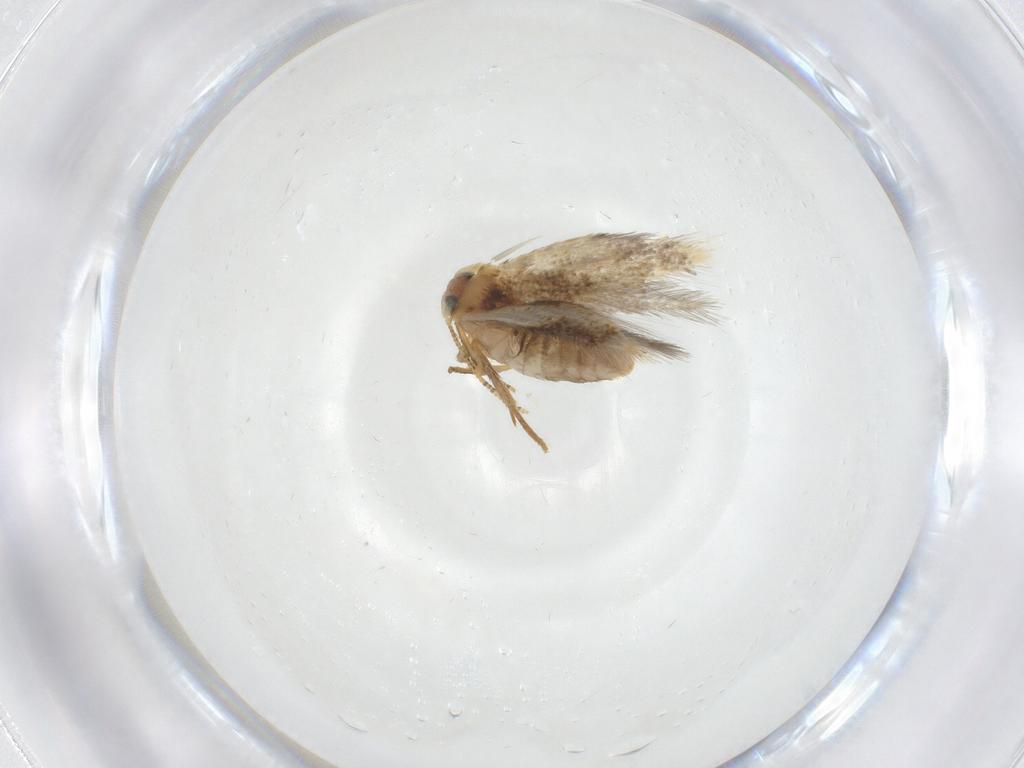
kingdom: Animalia
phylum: Arthropoda
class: Insecta
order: Lepidoptera
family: Nepticulidae
